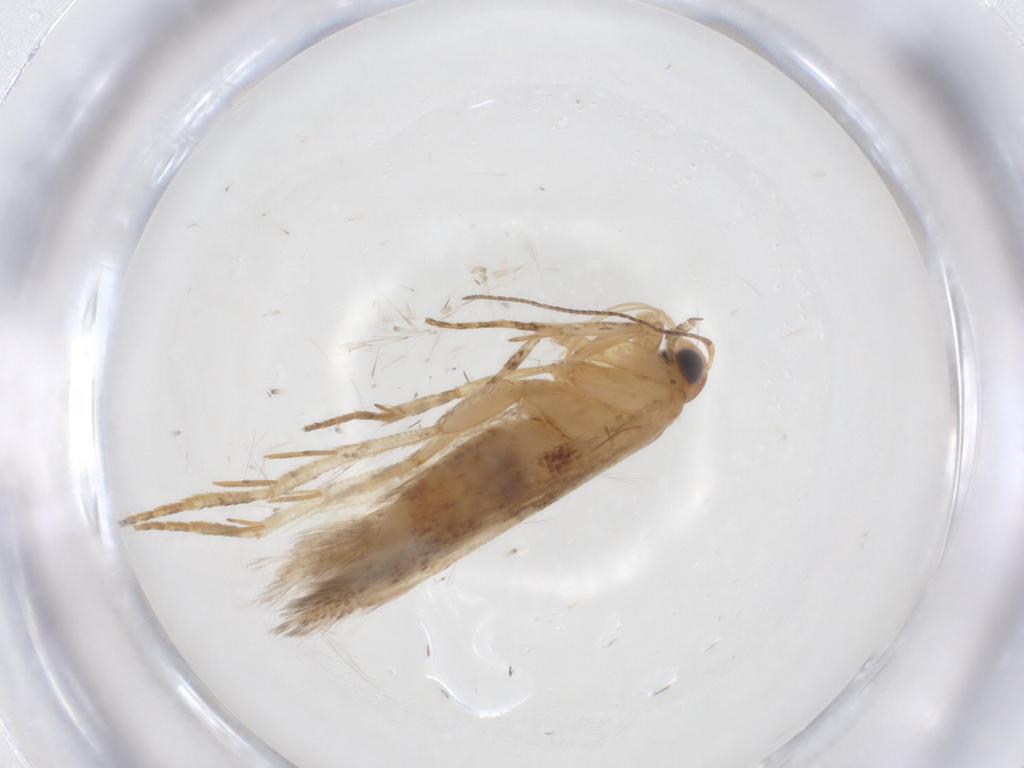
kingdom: Animalia
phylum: Arthropoda
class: Insecta
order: Lepidoptera
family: Gelechiidae
